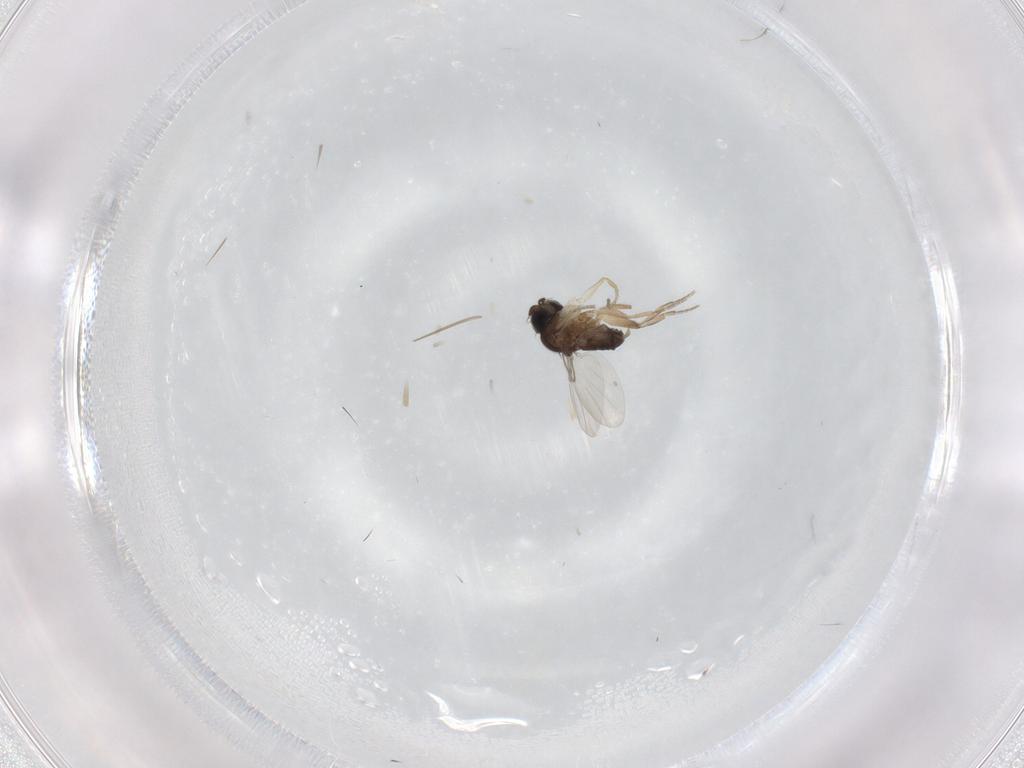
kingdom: Animalia
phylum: Arthropoda
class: Insecta
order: Diptera
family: Phoridae
